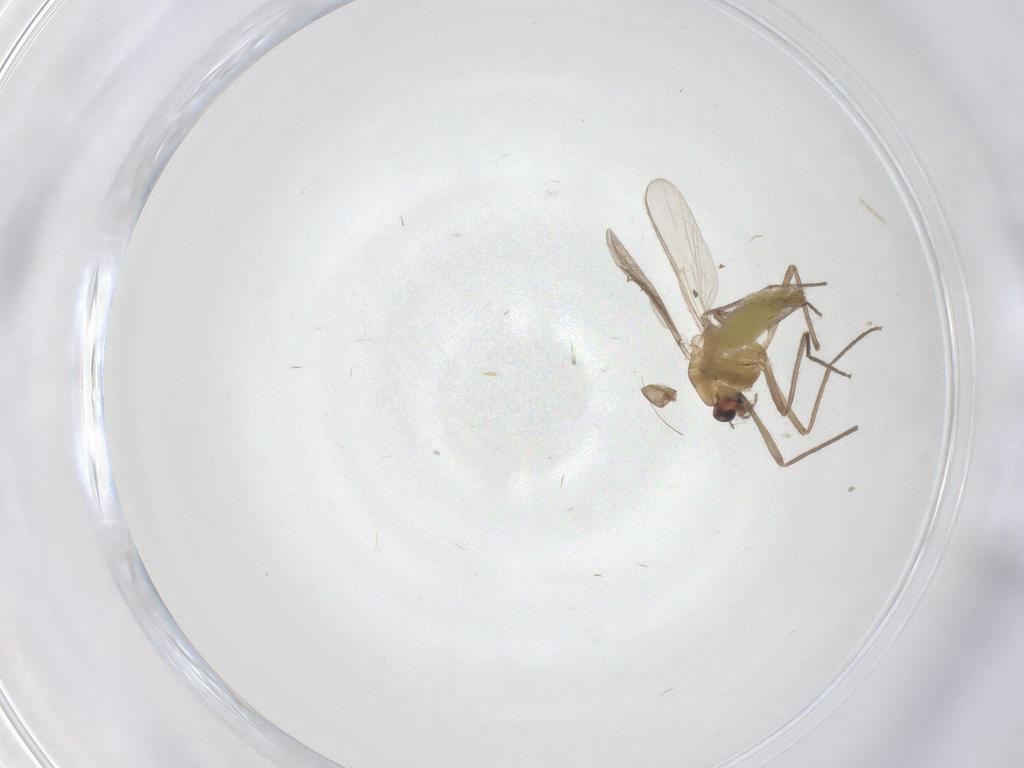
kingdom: Animalia
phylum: Arthropoda
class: Insecta
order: Diptera
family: Chironomidae
